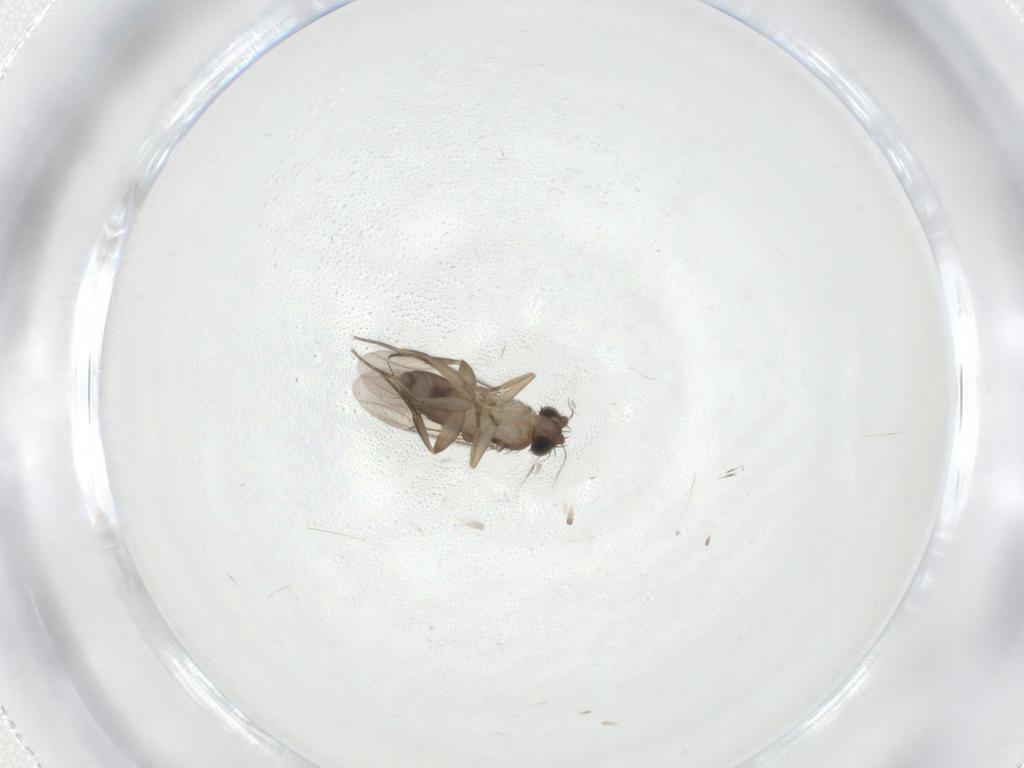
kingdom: Animalia
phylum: Arthropoda
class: Insecta
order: Diptera
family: Phoridae
